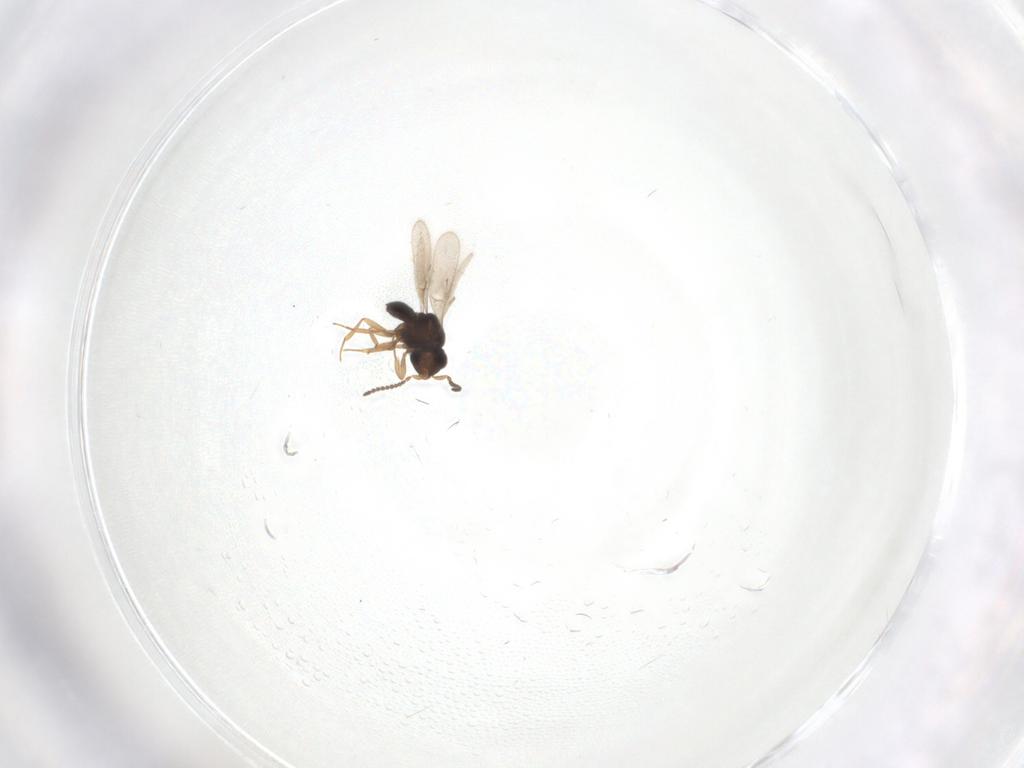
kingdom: Animalia
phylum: Arthropoda
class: Insecta
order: Hymenoptera
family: Scelionidae
